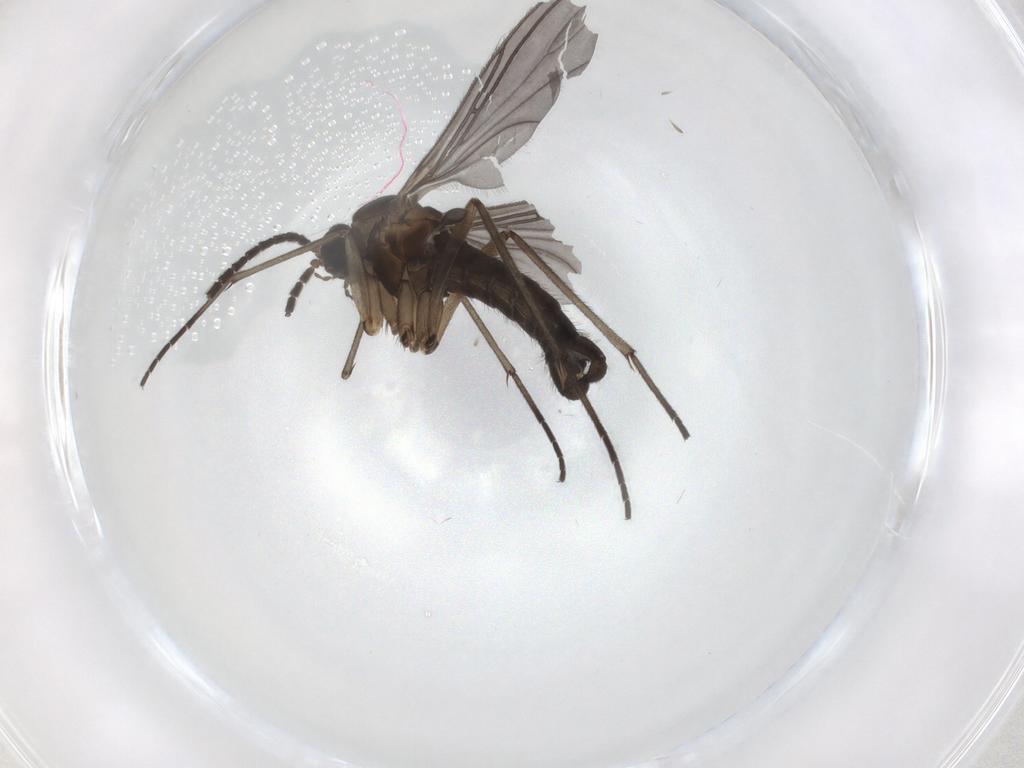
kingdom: Animalia
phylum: Arthropoda
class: Insecta
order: Diptera
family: Sciaridae
